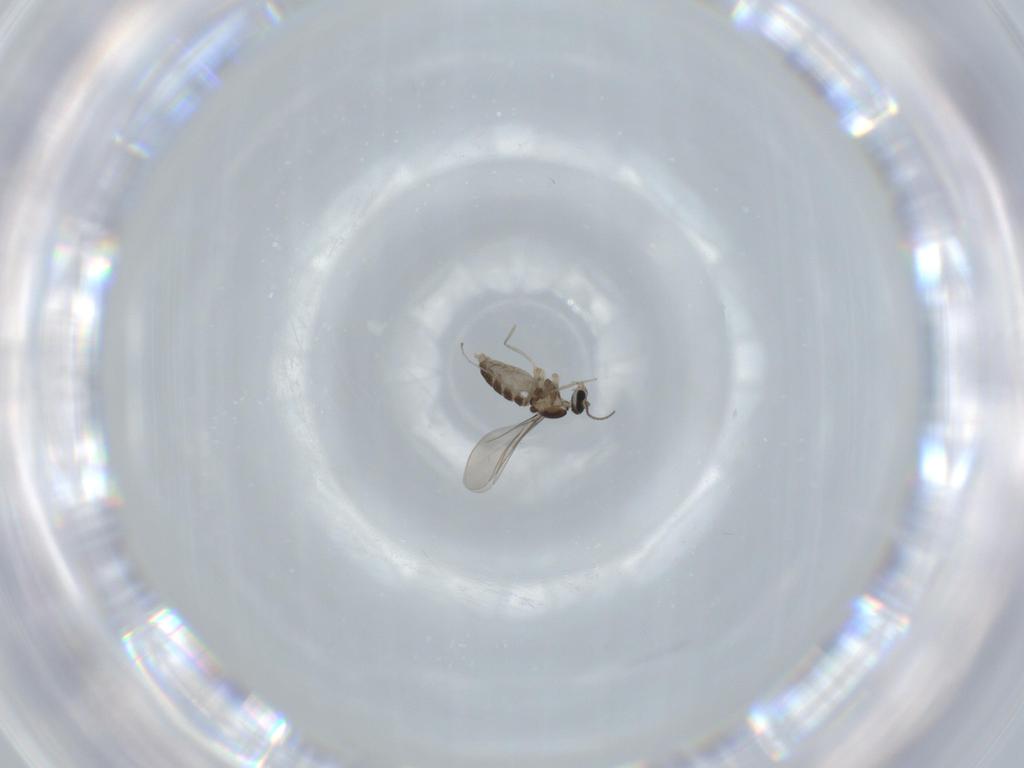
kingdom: Animalia
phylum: Arthropoda
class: Insecta
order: Diptera
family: Cecidomyiidae
